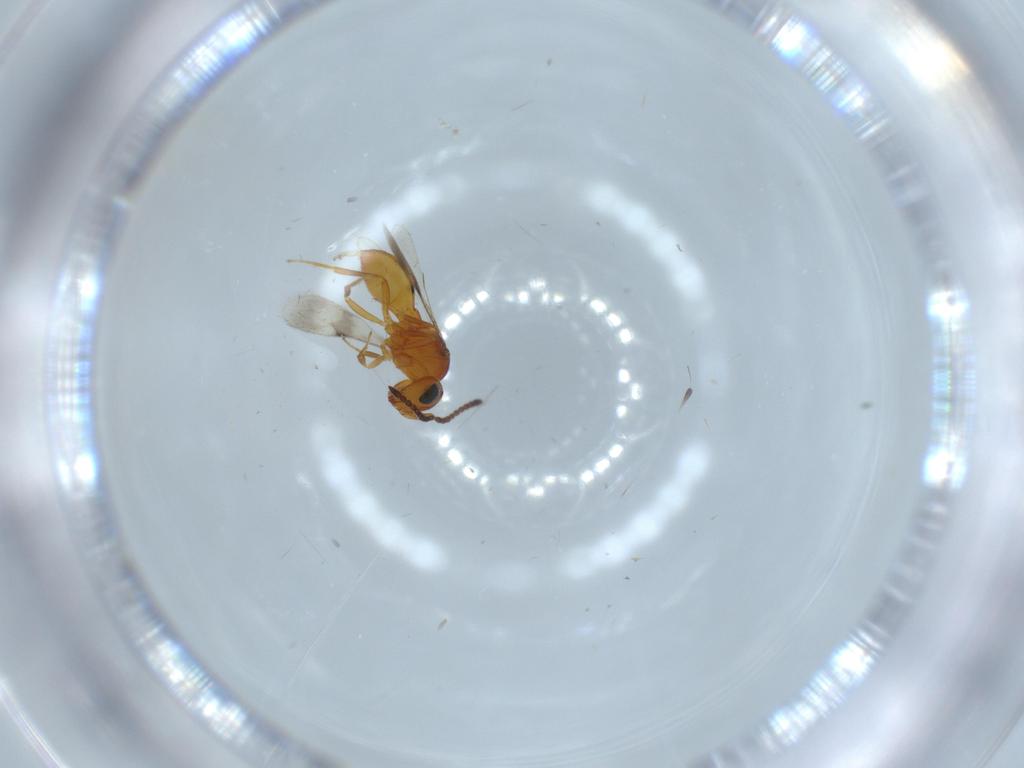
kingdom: Animalia
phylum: Arthropoda
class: Insecta
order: Hymenoptera
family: Scelionidae
